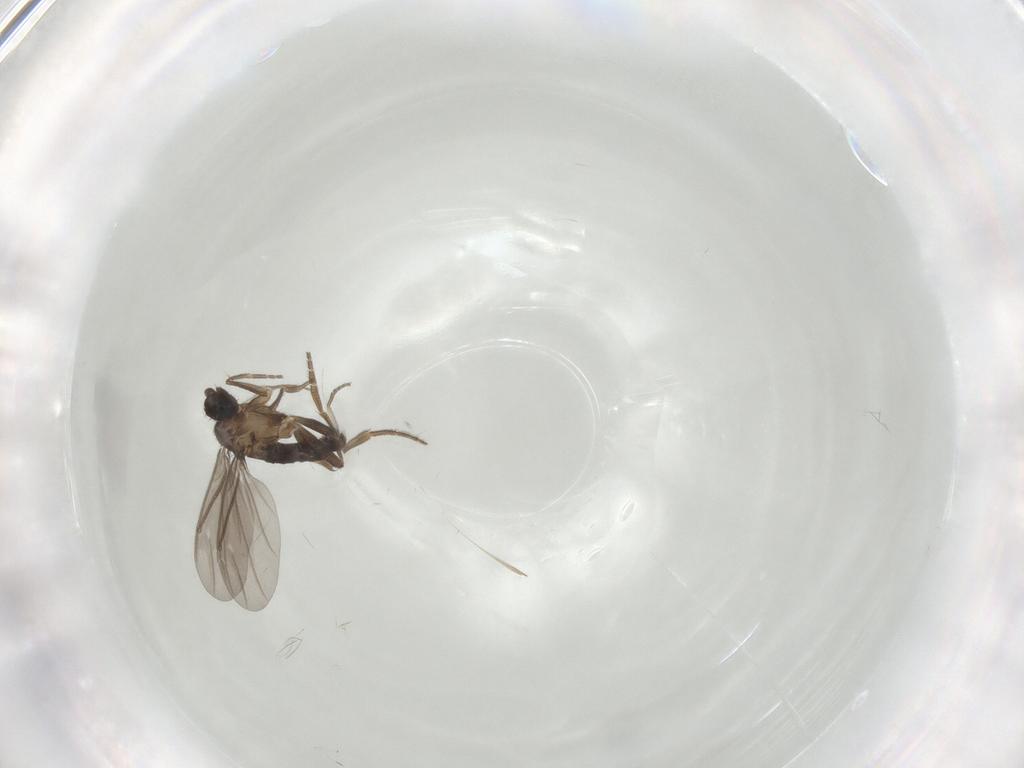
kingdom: Animalia
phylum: Arthropoda
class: Insecta
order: Diptera
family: Phoridae
